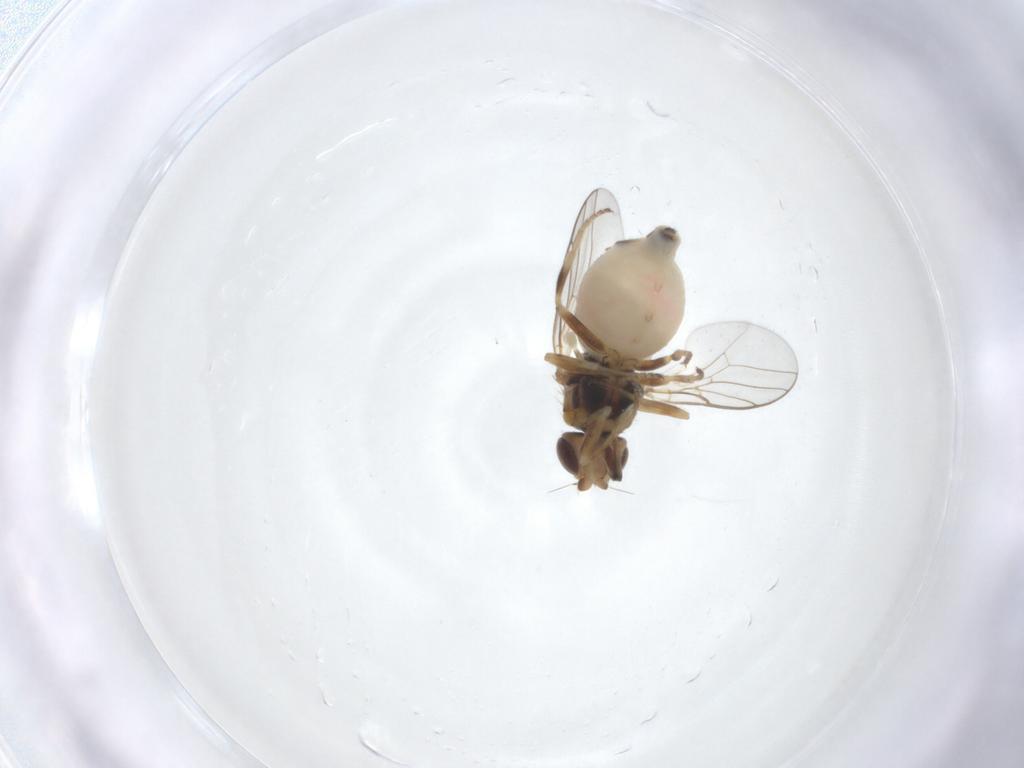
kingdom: Animalia
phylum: Arthropoda
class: Insecta
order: Diptera
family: Chloropidae
